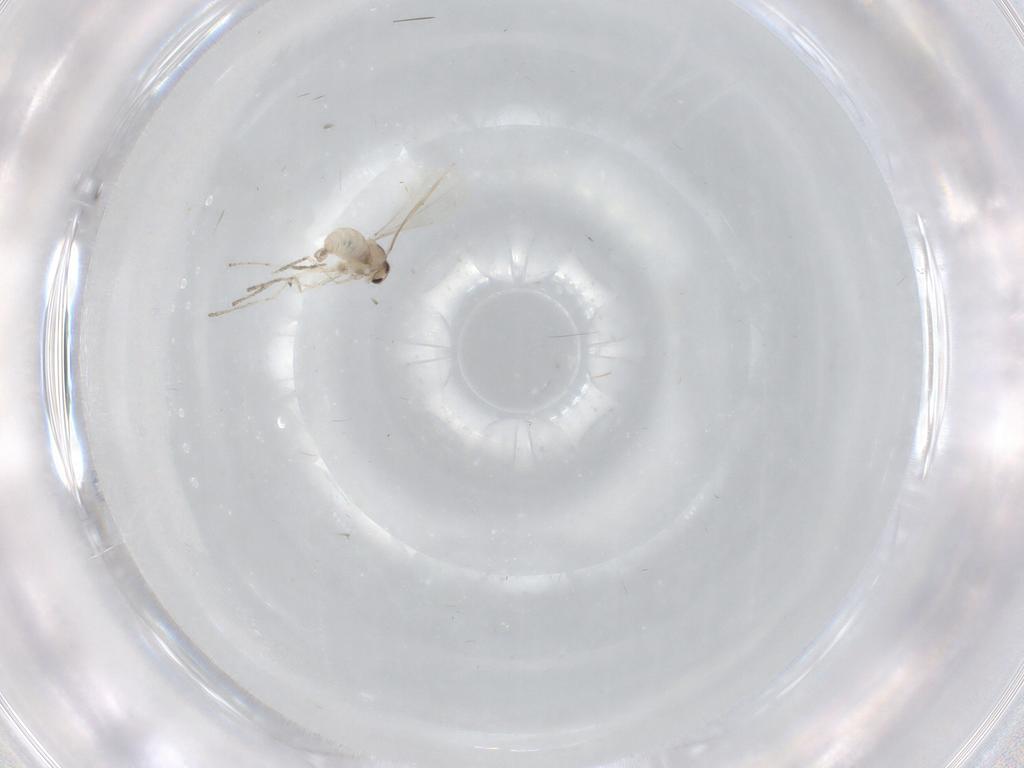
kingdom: Animalia
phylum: Arthropoda
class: Insecta
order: Diptera
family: Cecidomyiidae
